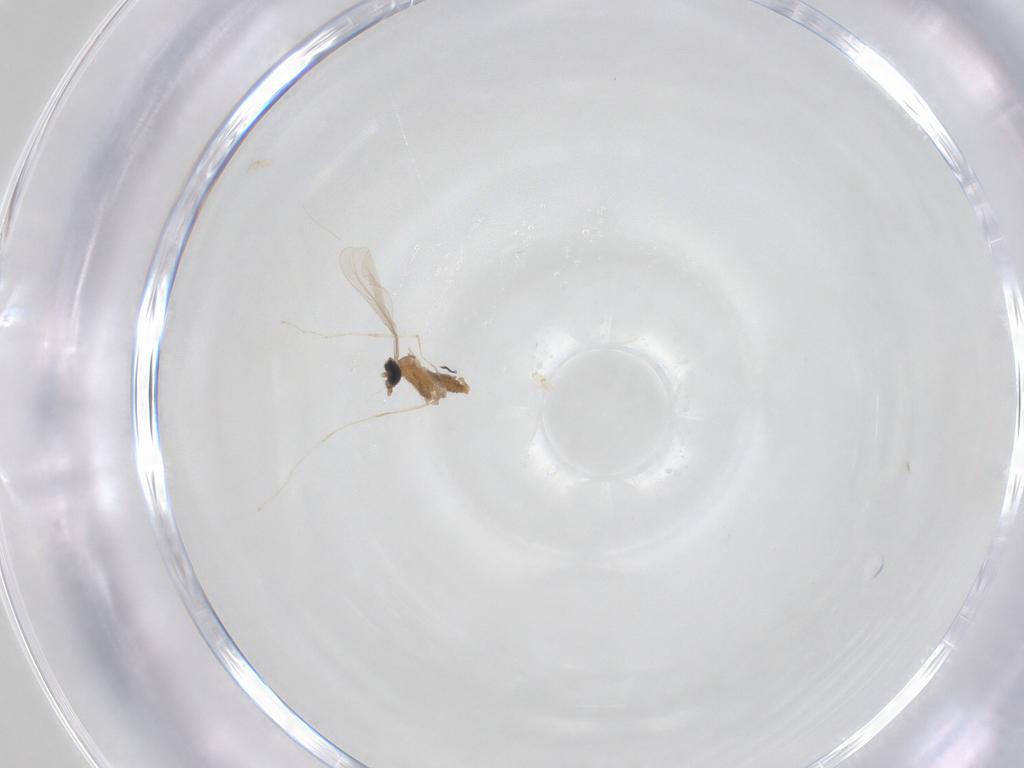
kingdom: Animalia
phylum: Arthropoda
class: Insecta
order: Diptera
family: Cecidomyiidae
